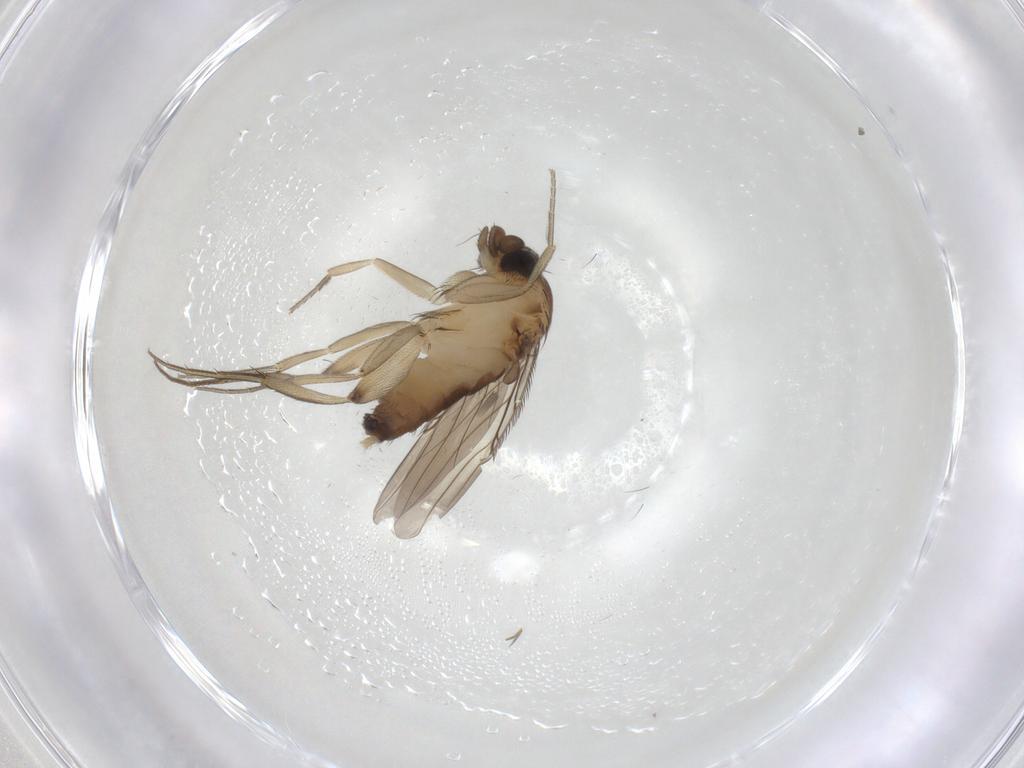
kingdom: Animalia
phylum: Arthropoda
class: Insecta
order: Diptera
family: Phoridae
